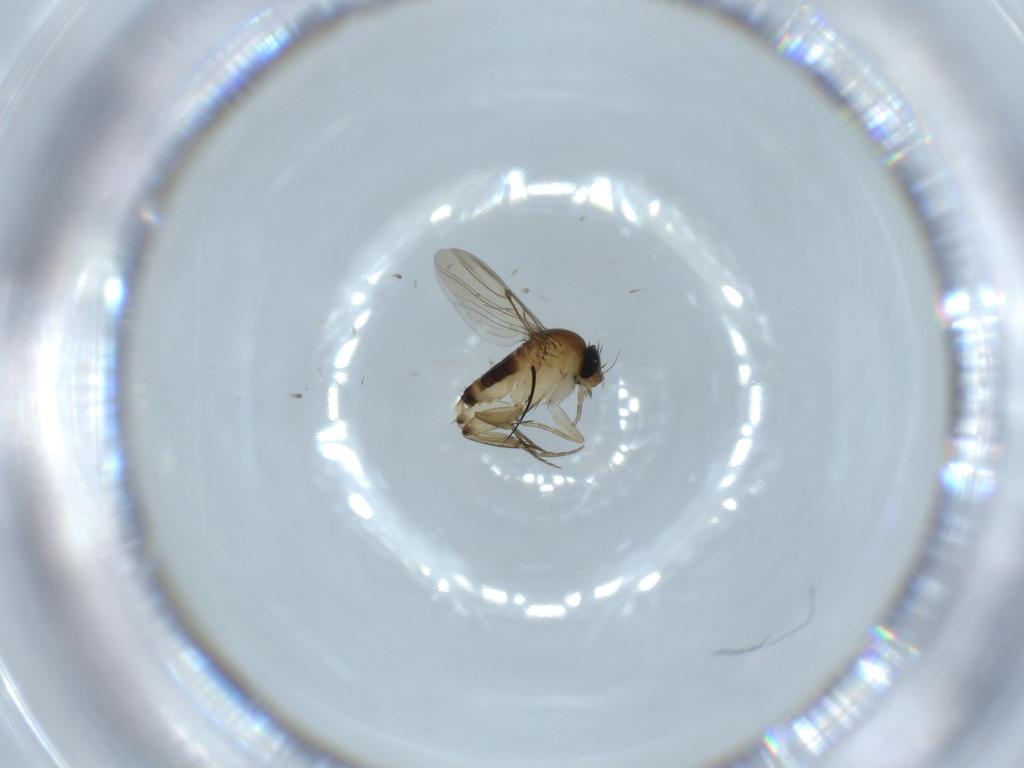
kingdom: Animalia
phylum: Arthropoda
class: Insecta
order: Diptera
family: Phoridae
